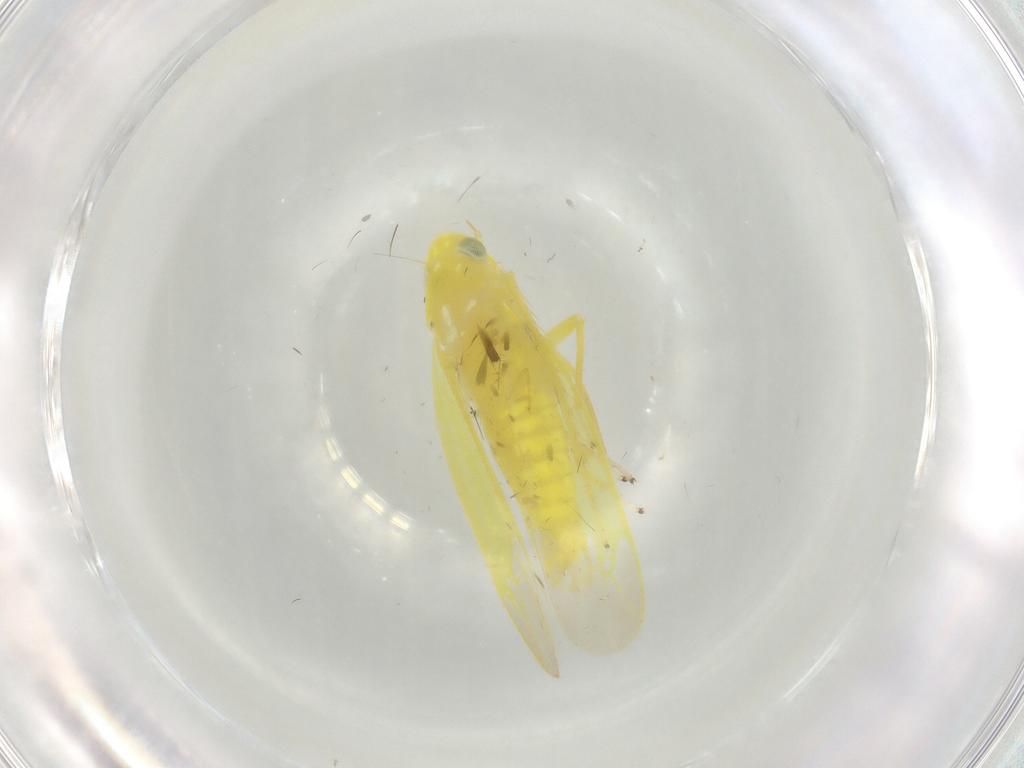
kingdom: Animalia
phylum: Arthropoda
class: Insecta
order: Hemiptera
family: Cicadellidae
